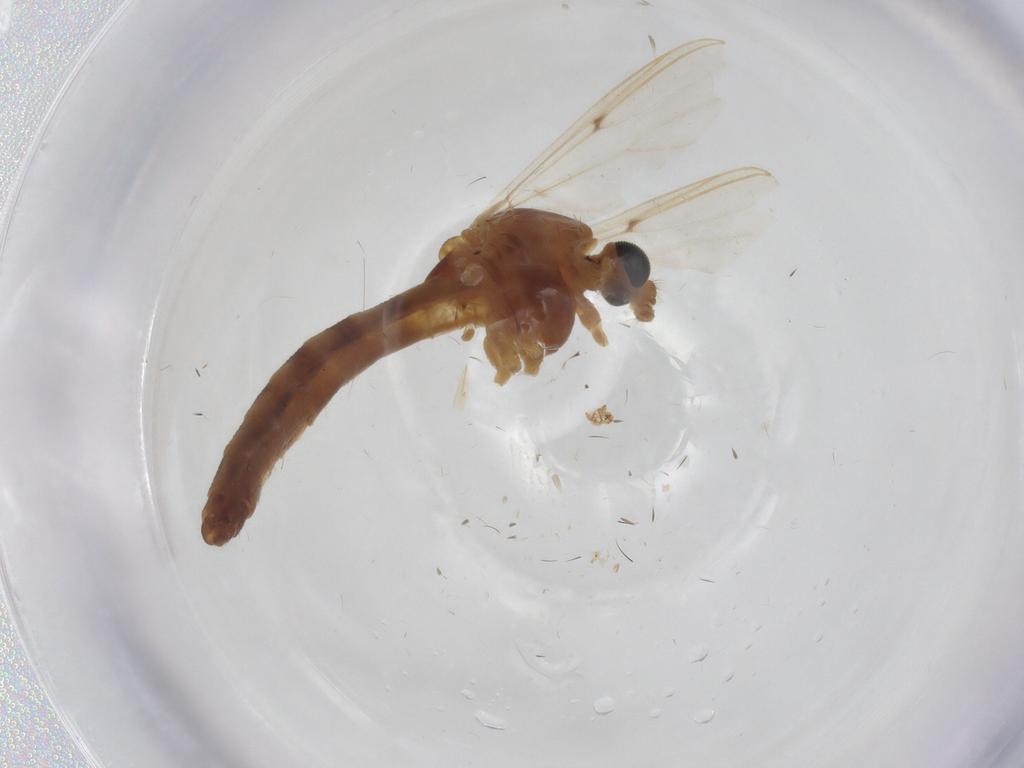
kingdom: Animalia
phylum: Arthropoda
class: Insecta
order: Diptera
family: Chironomidae
